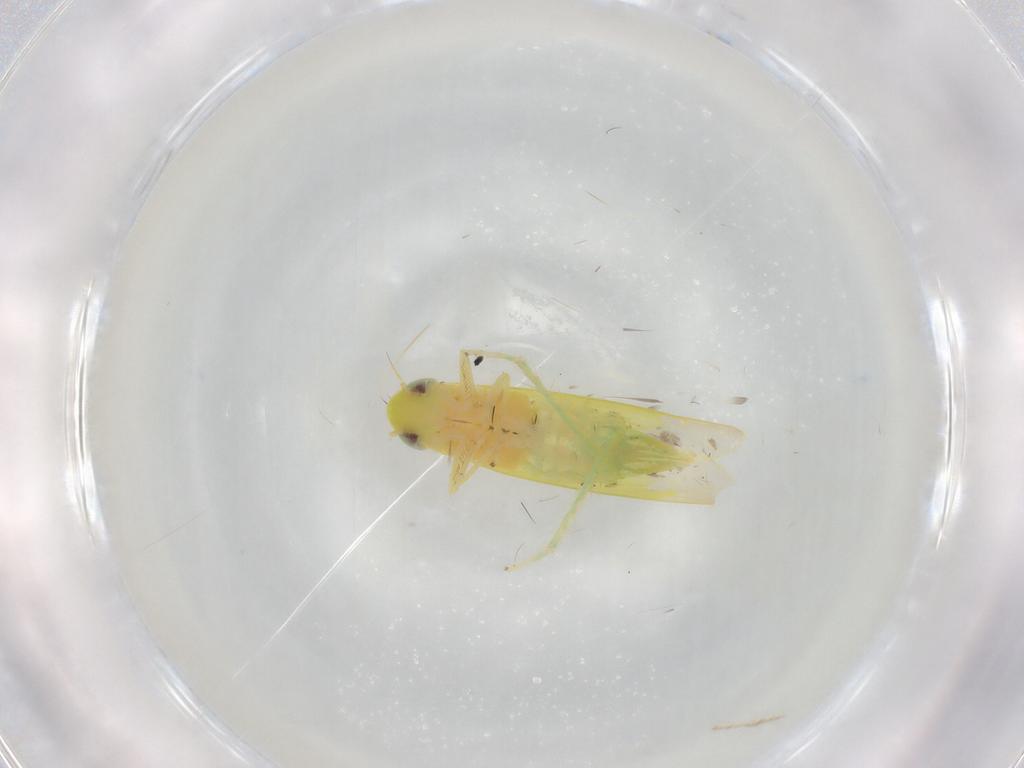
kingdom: Animalia
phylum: Arthropoda
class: Insecta
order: Hemiptera
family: Cicadellidae
